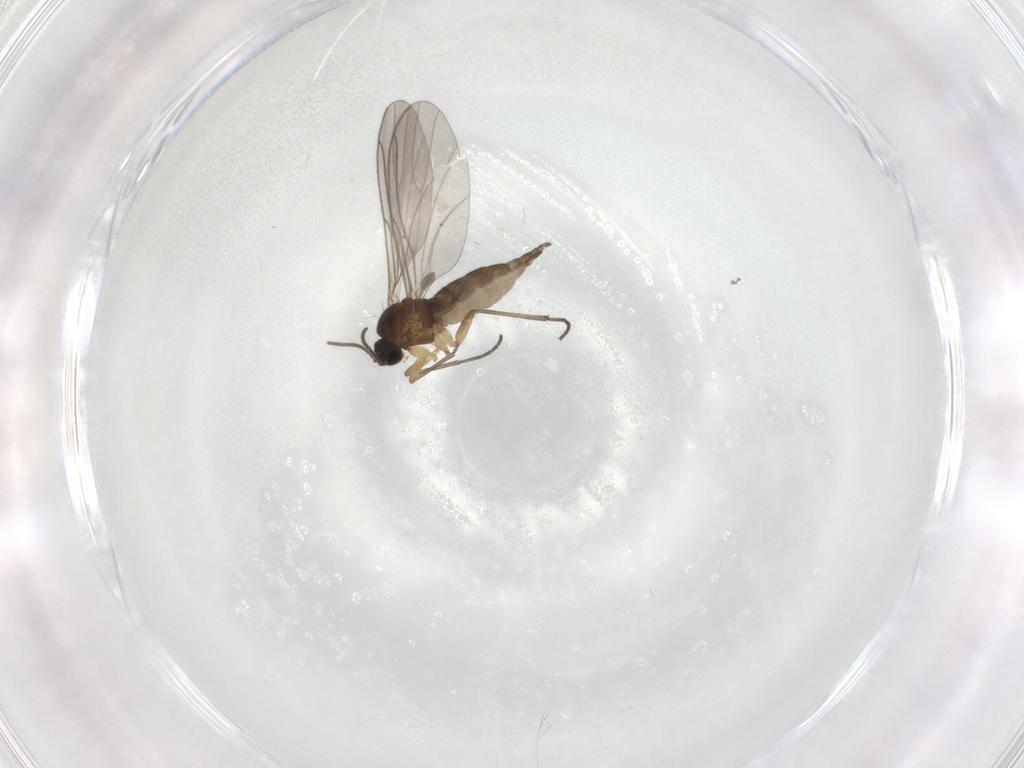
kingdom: Animalia
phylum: Arthropoda
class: Insecta
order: Diptera
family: Sciaridae
